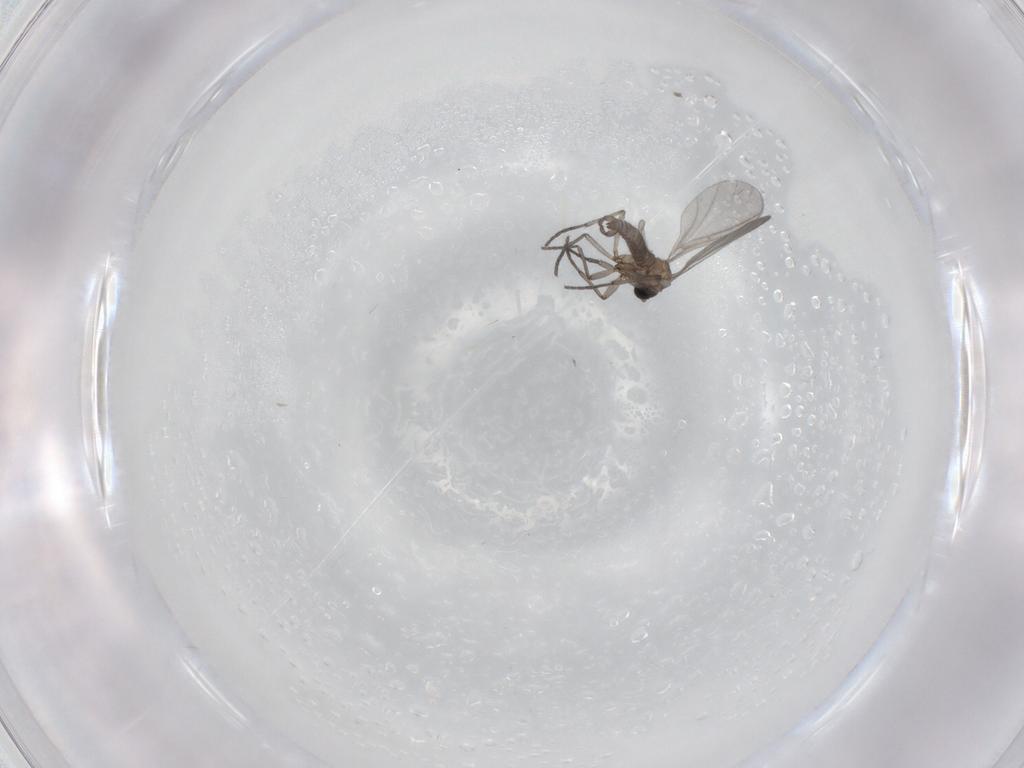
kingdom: Animalia
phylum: Arthropoda
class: Insecta
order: Diptera
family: Sciaridae
